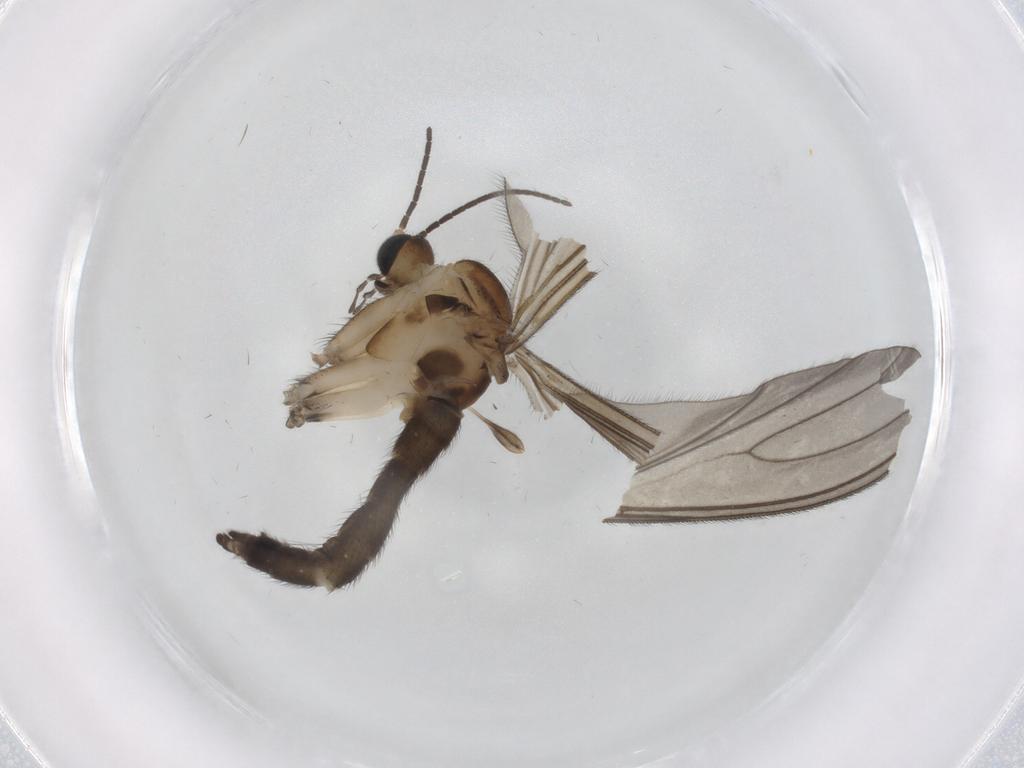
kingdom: Animalia
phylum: Arthropoda
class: Insecta
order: Diptera
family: Sciaridae
